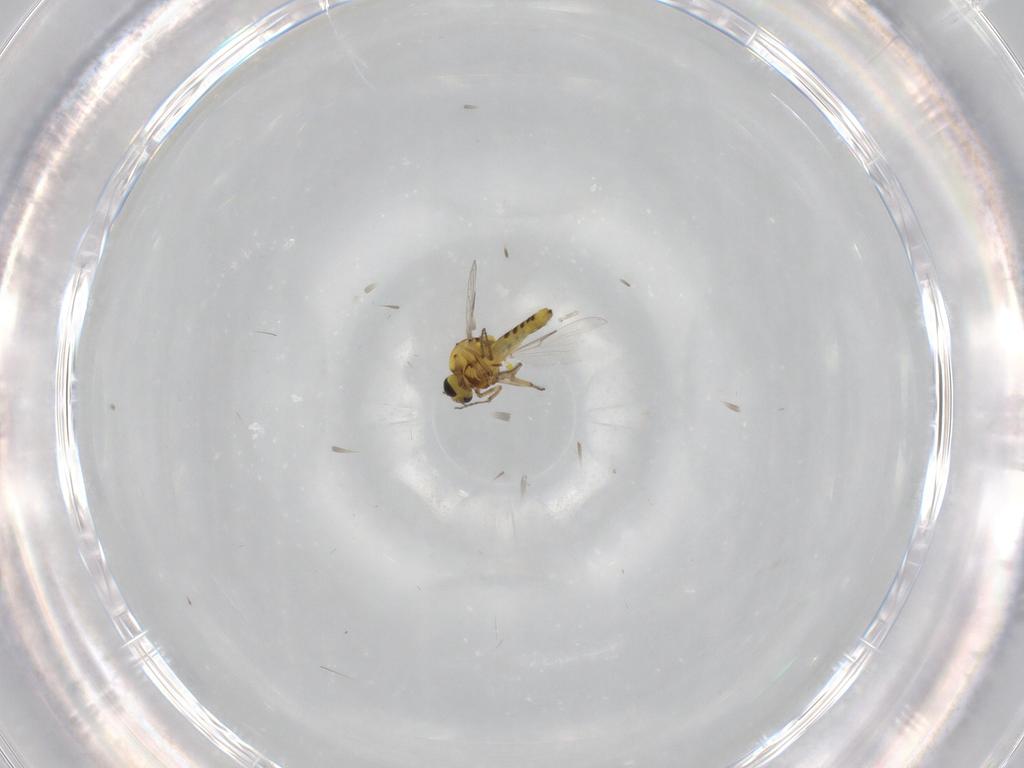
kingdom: Animalia
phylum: Arthropoda
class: Insecta
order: Diptera
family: Ceratopogonidae
